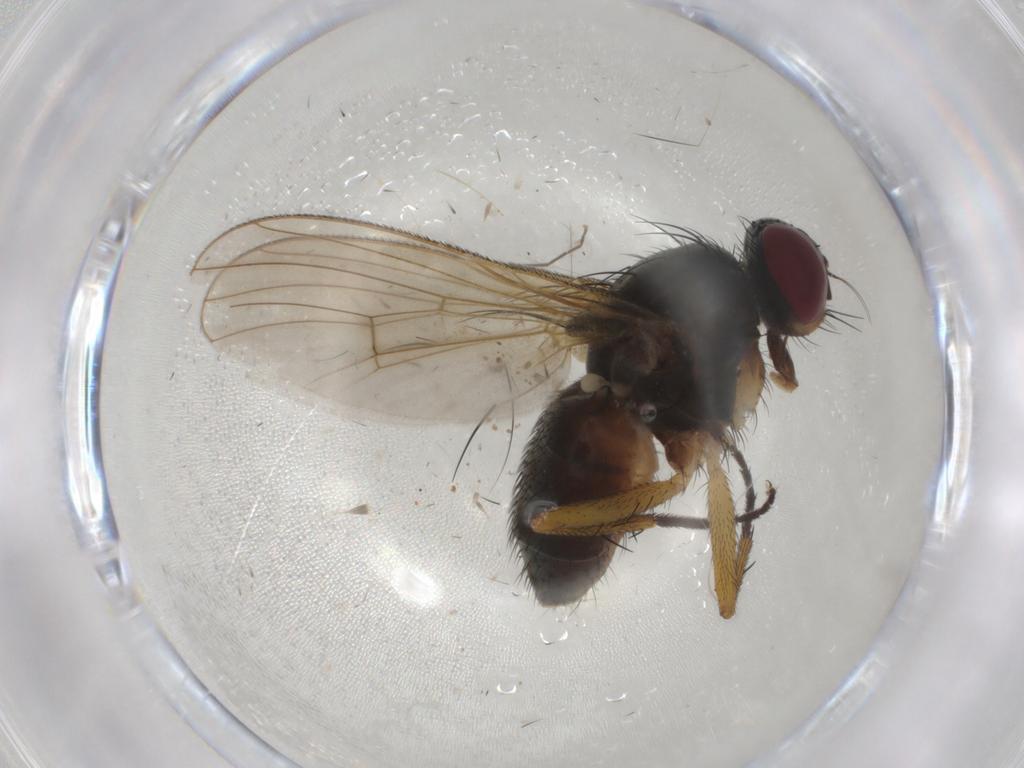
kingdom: Animalia
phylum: Arthropoda
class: Insecta
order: Diptera
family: Muscidae
